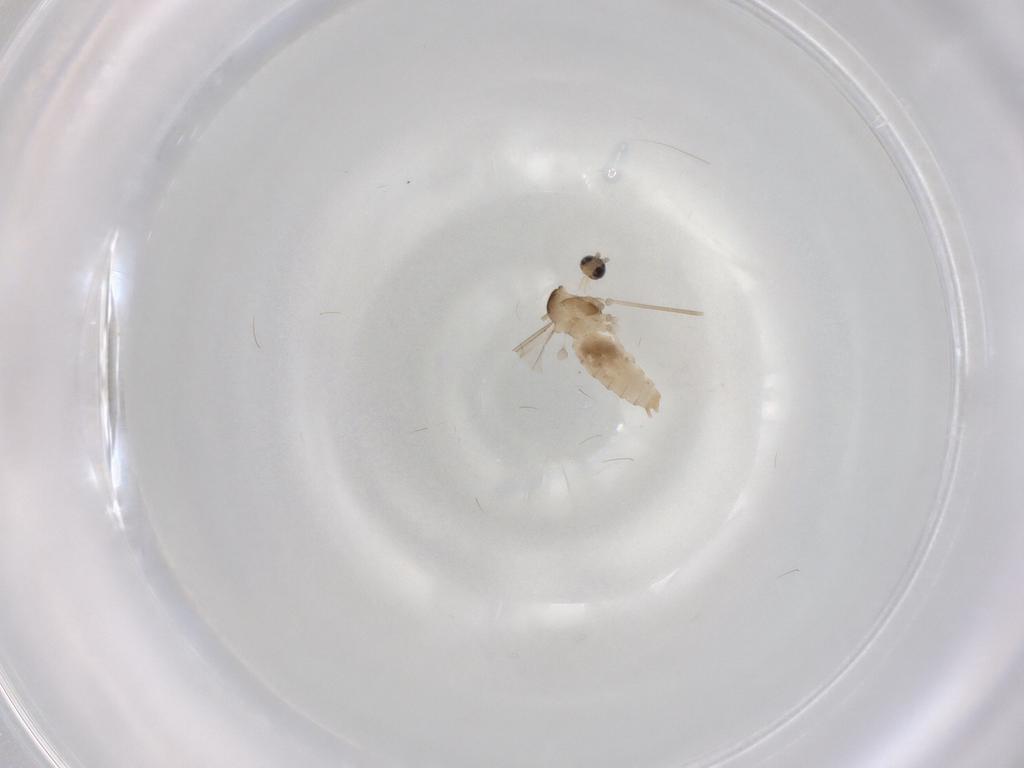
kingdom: Animalia
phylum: Arthropoda
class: Insecta
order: Diptera
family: Cecidomyiidae
